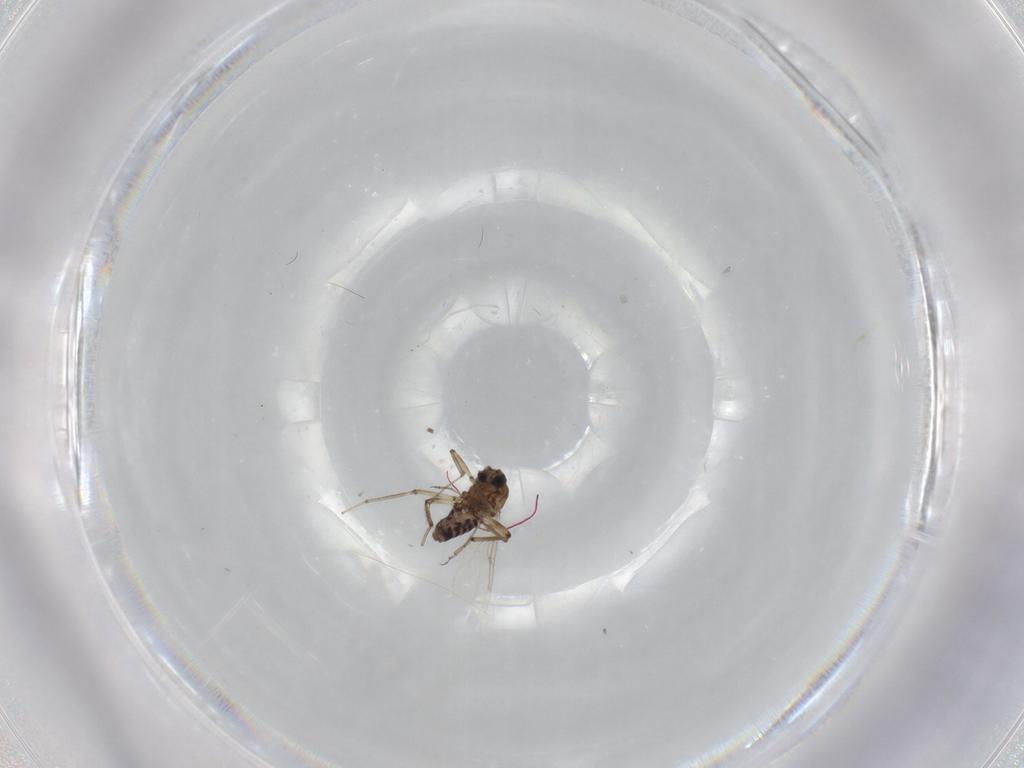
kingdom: Animalia
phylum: Arthropoda
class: Insecta
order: Diptera
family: Ceratopogonidae
